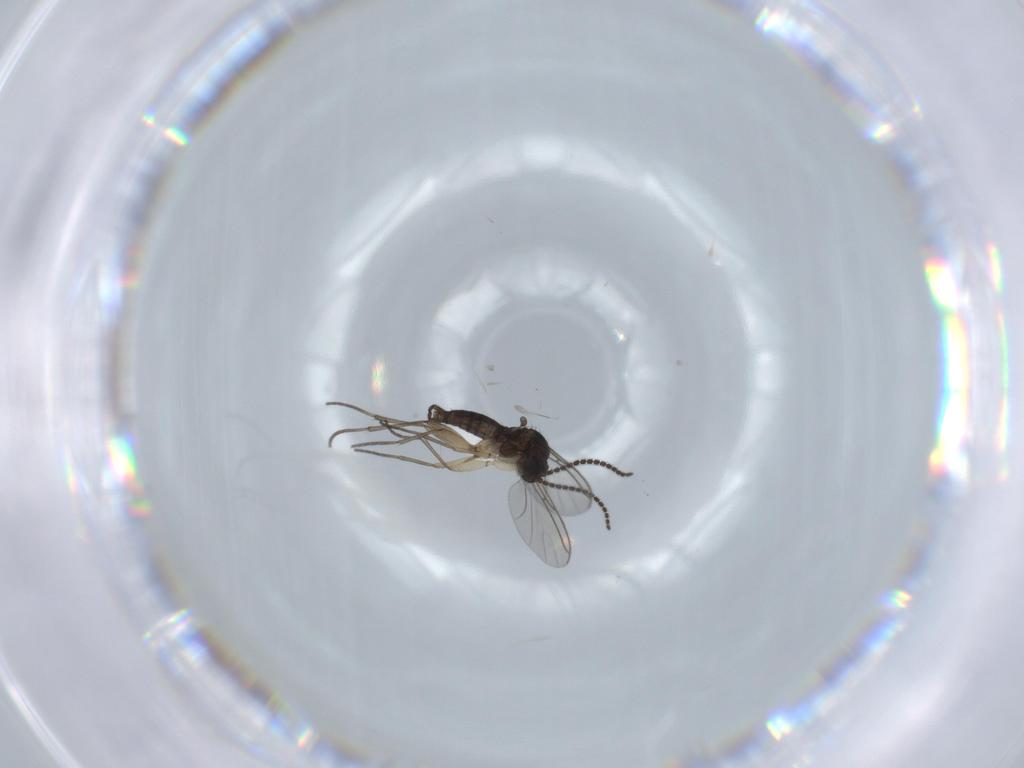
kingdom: Animalia
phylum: Arthropoda
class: Insecta
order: Diptera
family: Sciaridae
